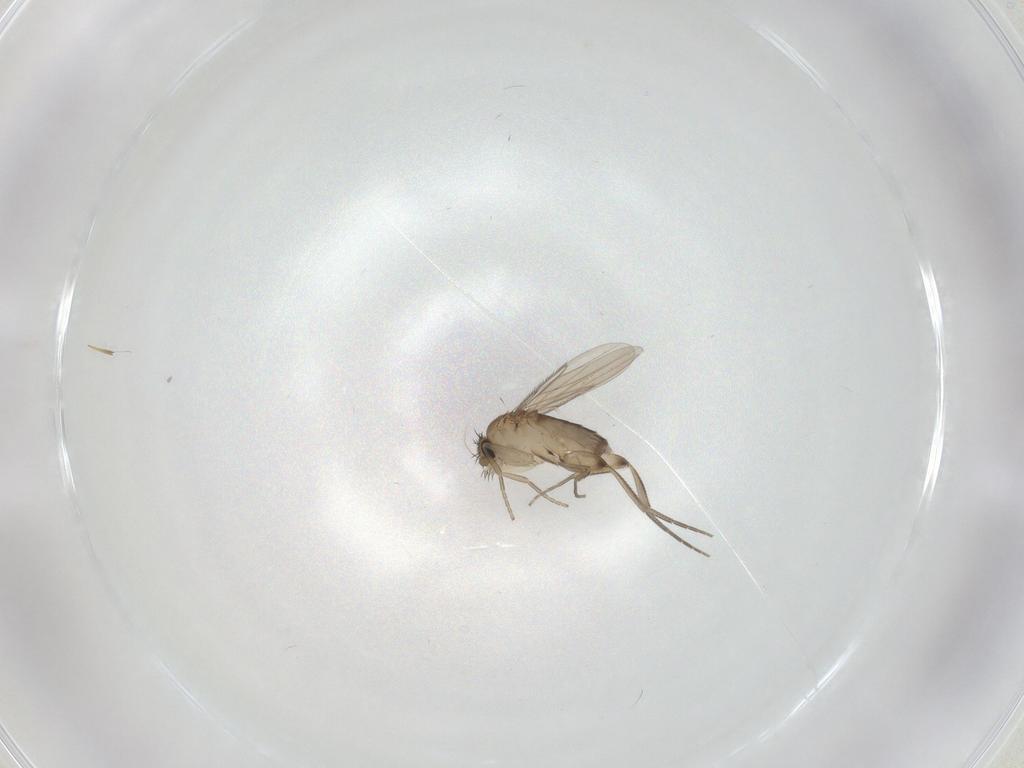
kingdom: Animalia
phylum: Arthropoda
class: Insecta
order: Diptera
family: Phoridae
